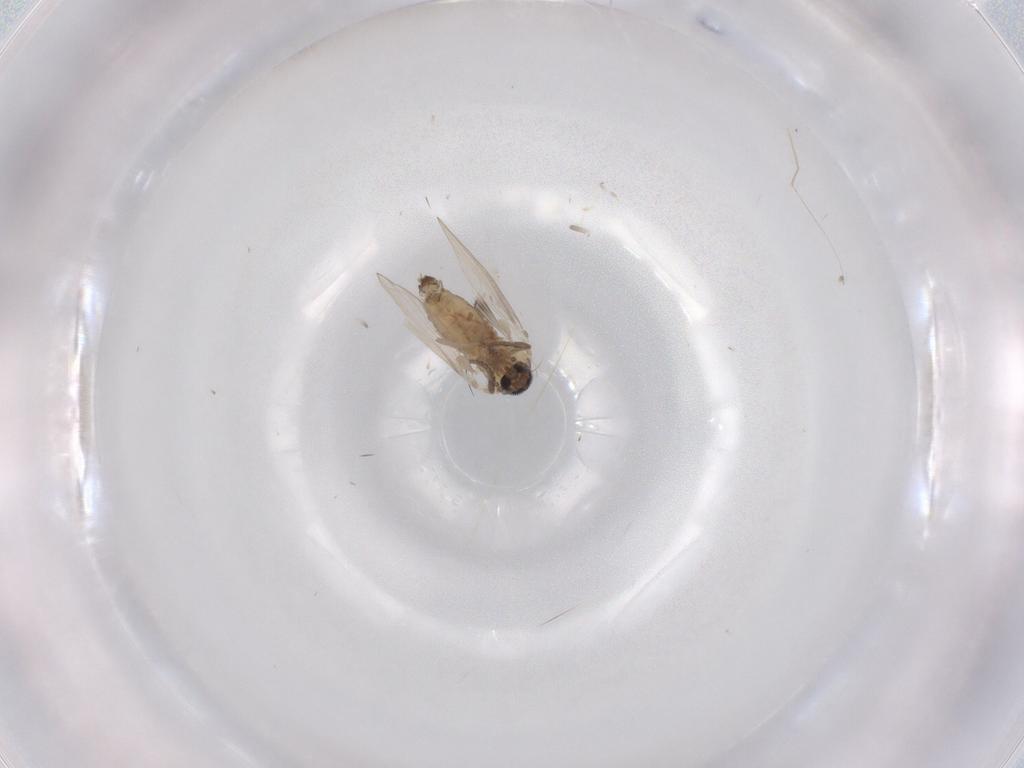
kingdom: Animalia
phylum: Arthropoda
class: Insecta
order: Diptera
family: Psychodidae
